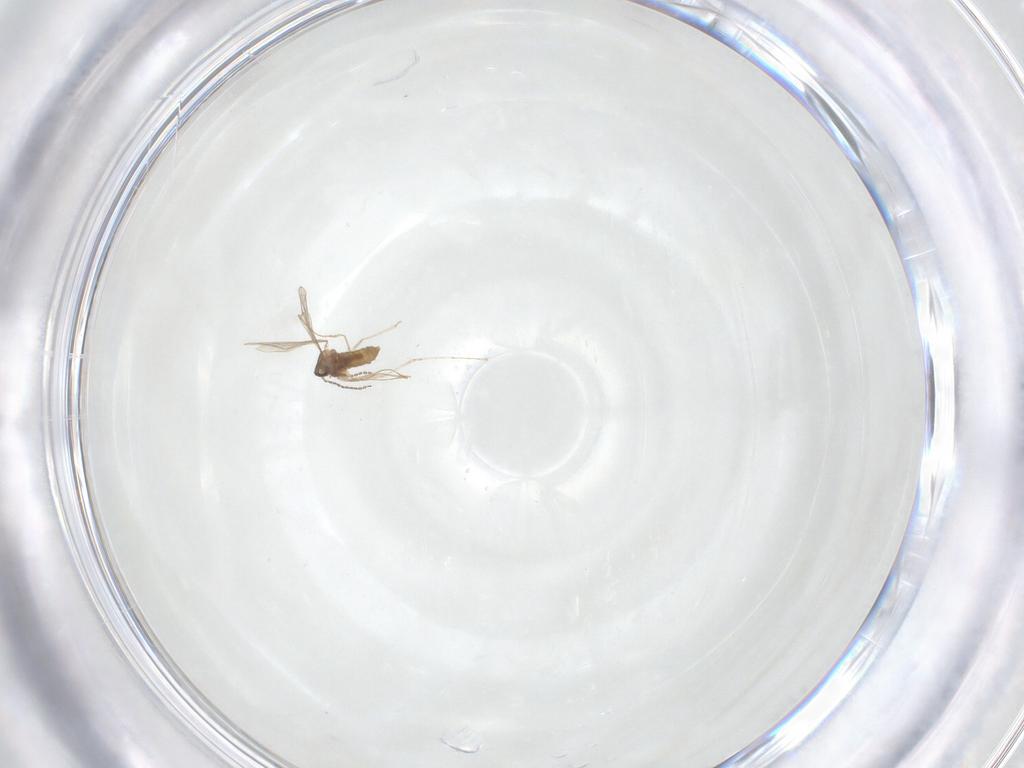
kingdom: Animalia
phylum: Arthropoda
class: Insecta
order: Diptera
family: Cecidomyiidae
